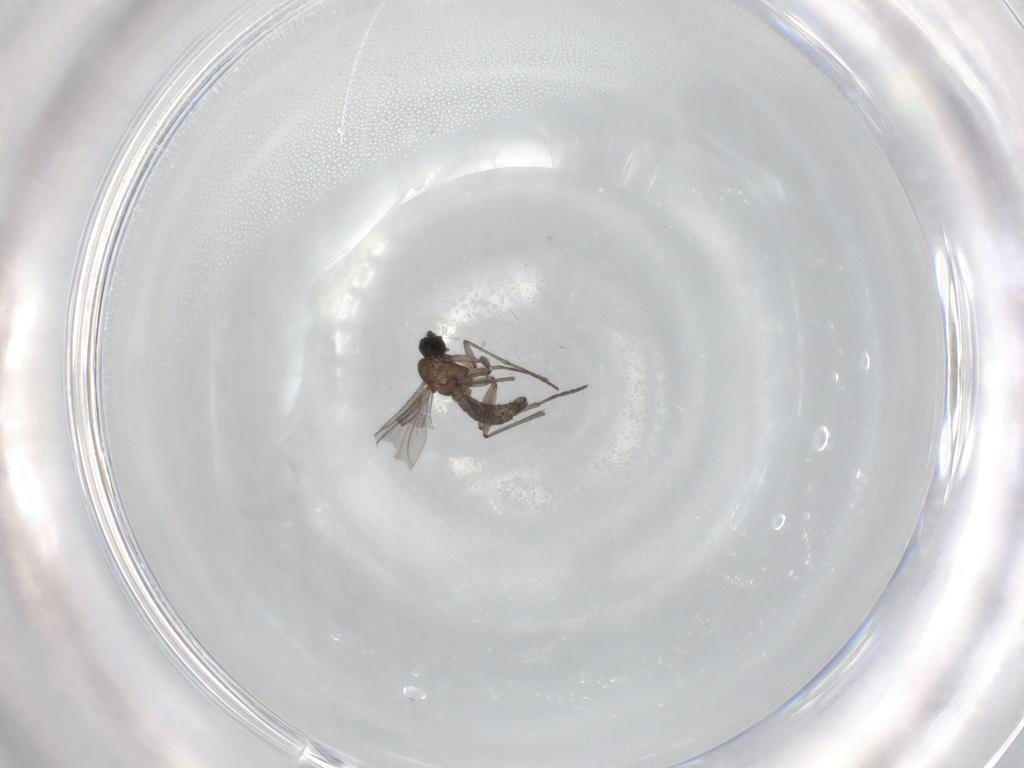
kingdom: Animalia
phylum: Arthropoda
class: Insecta
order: Diptera
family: Sciaridae
